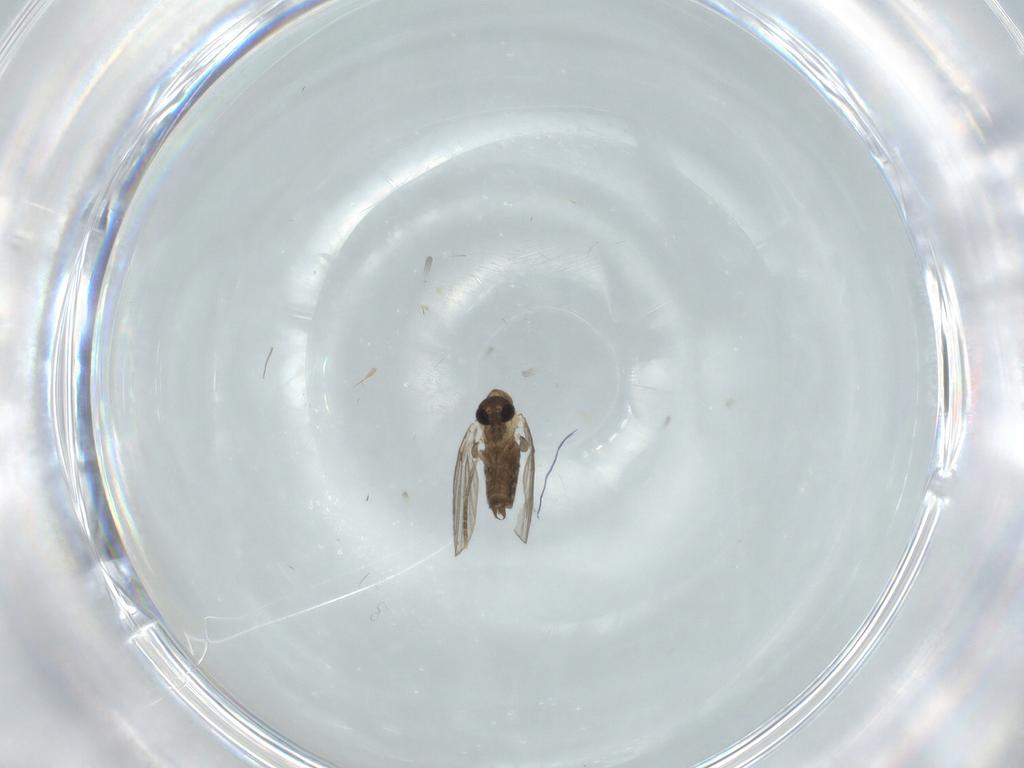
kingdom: Animalia
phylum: Arthropoda
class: Insecta
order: Diptera
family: Psychodidae
